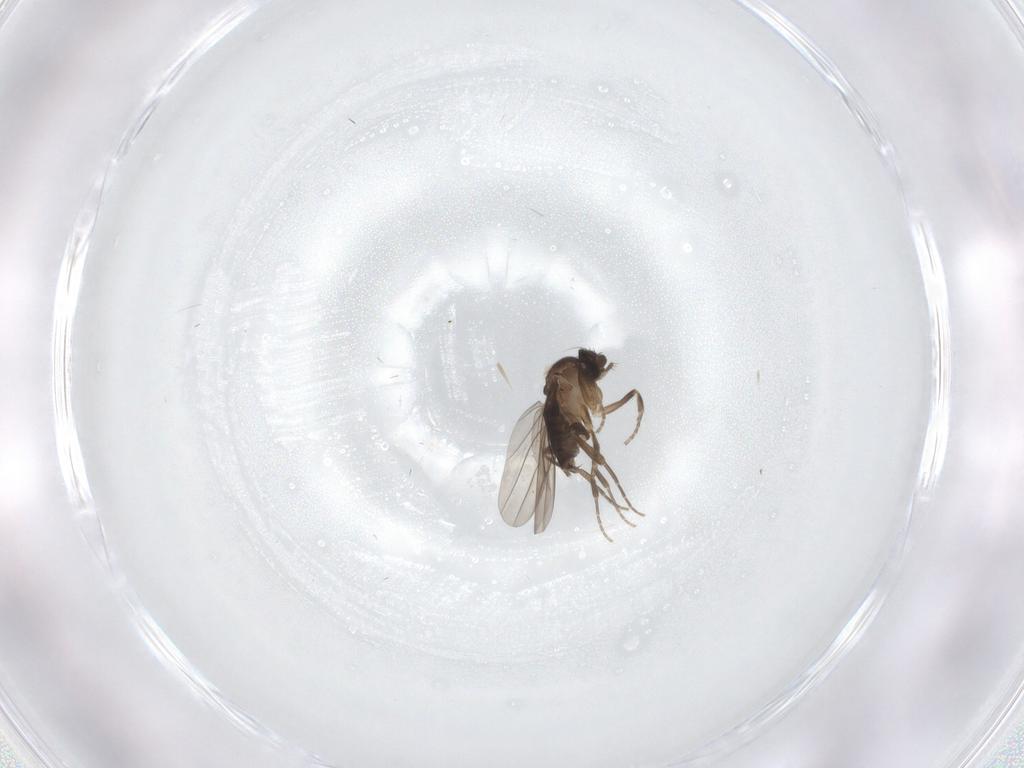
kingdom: Animalia
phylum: Arthropoda
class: Insecta
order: Diptera
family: Phoridae
